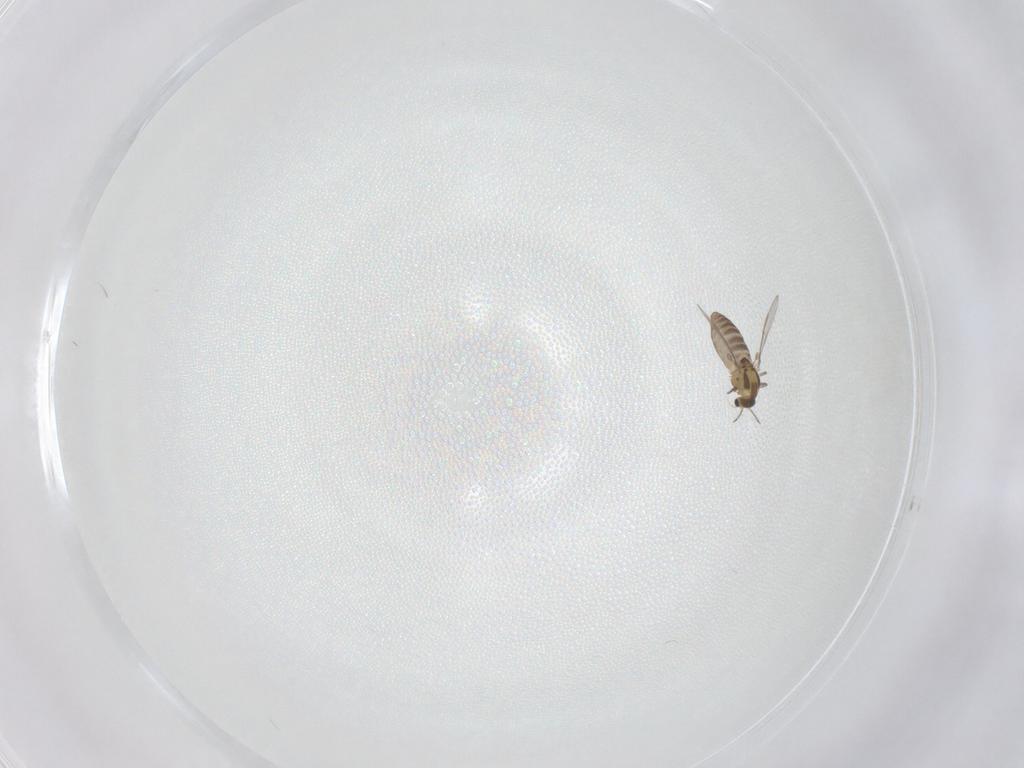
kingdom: Animalia
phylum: Arthropoda
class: Insecta
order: Diptera
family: Chironomidae
